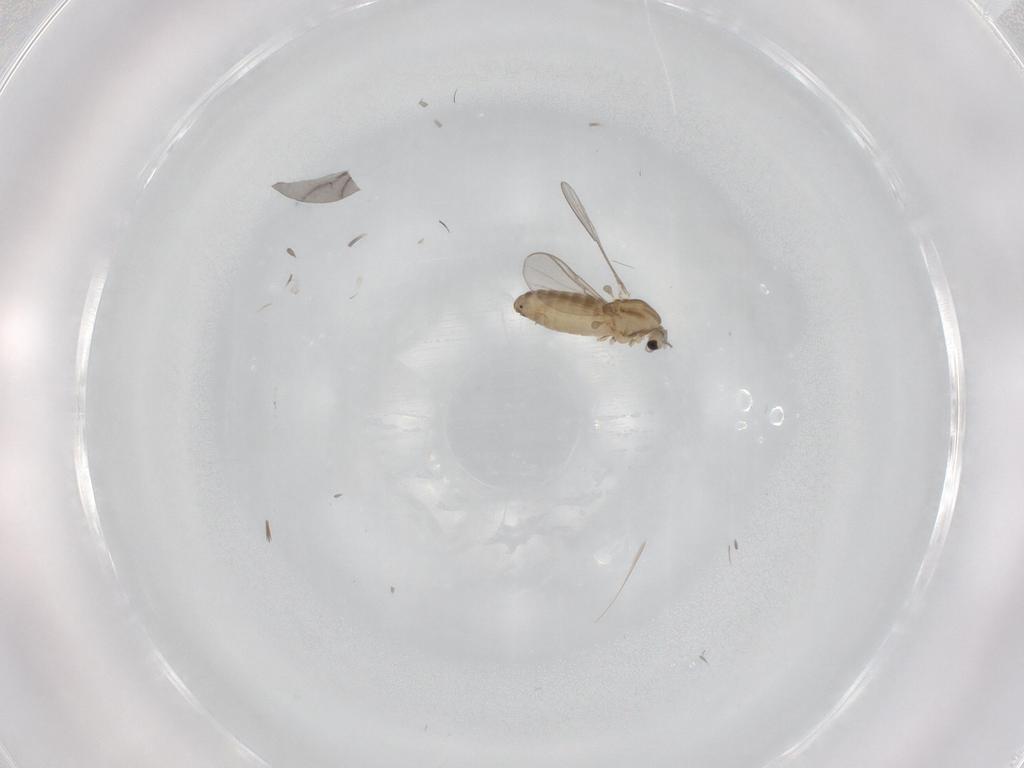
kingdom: Animalia
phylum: Arthropoda
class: Insecta
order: Diptera
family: Chironomidae
